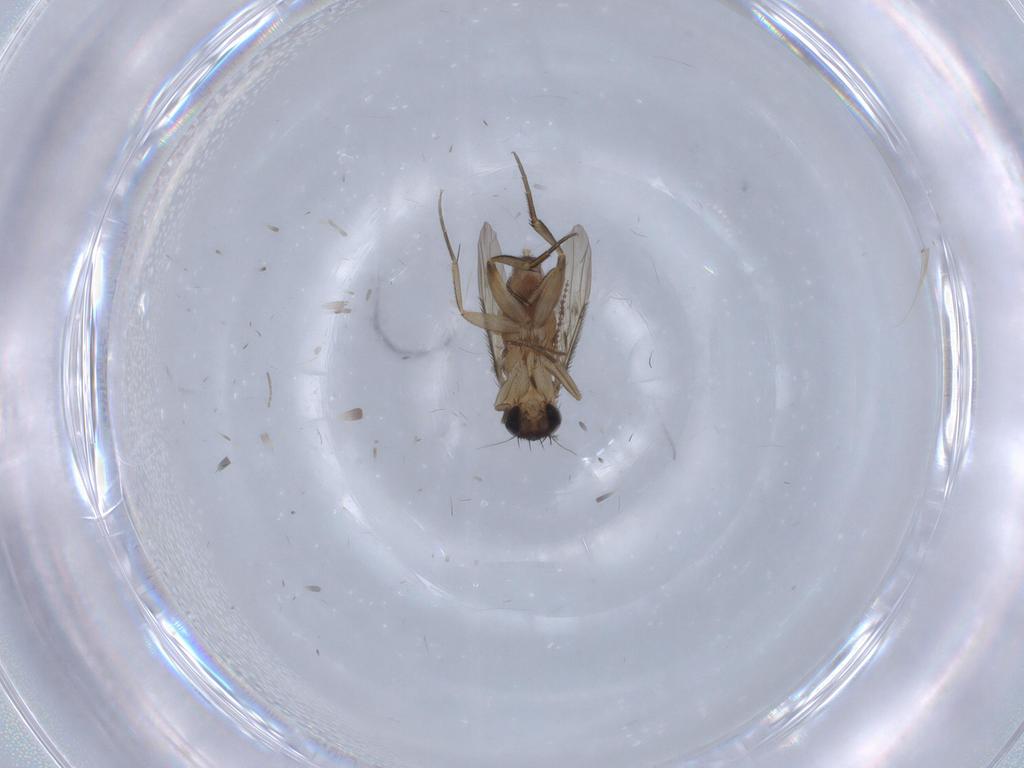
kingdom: Animalia
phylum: Arthropoda
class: Insecta
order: Diptera
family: Phoridae
